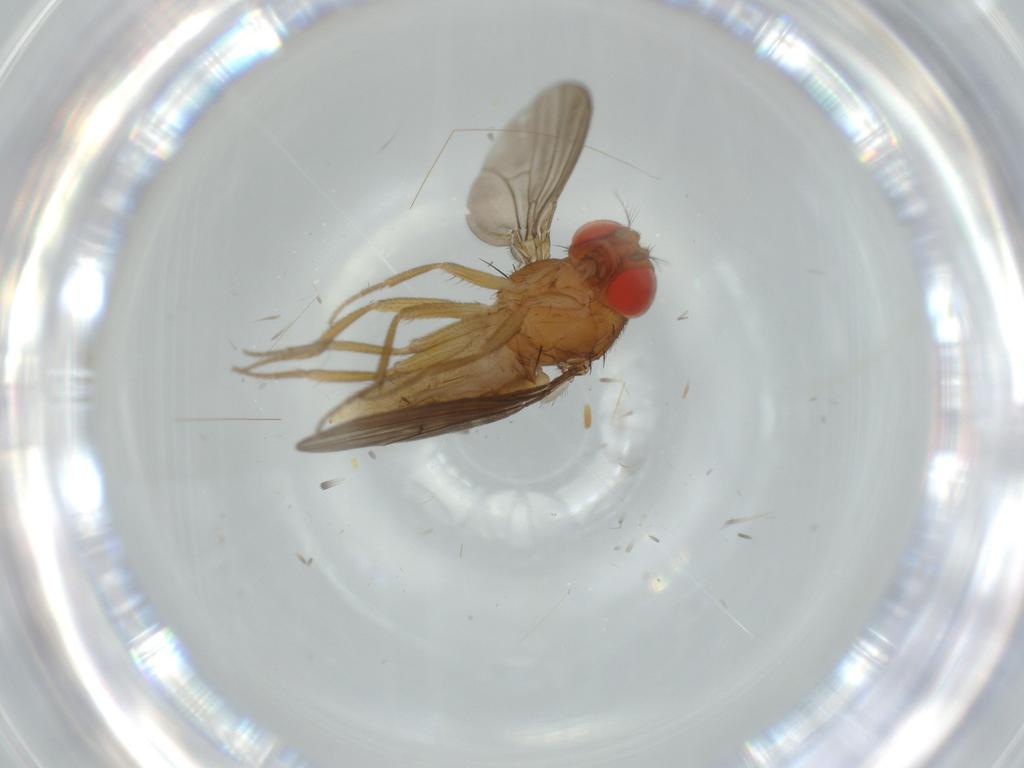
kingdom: Animalia
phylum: Arthropoda
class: Insecta
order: Diptera
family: Drosophilidae
